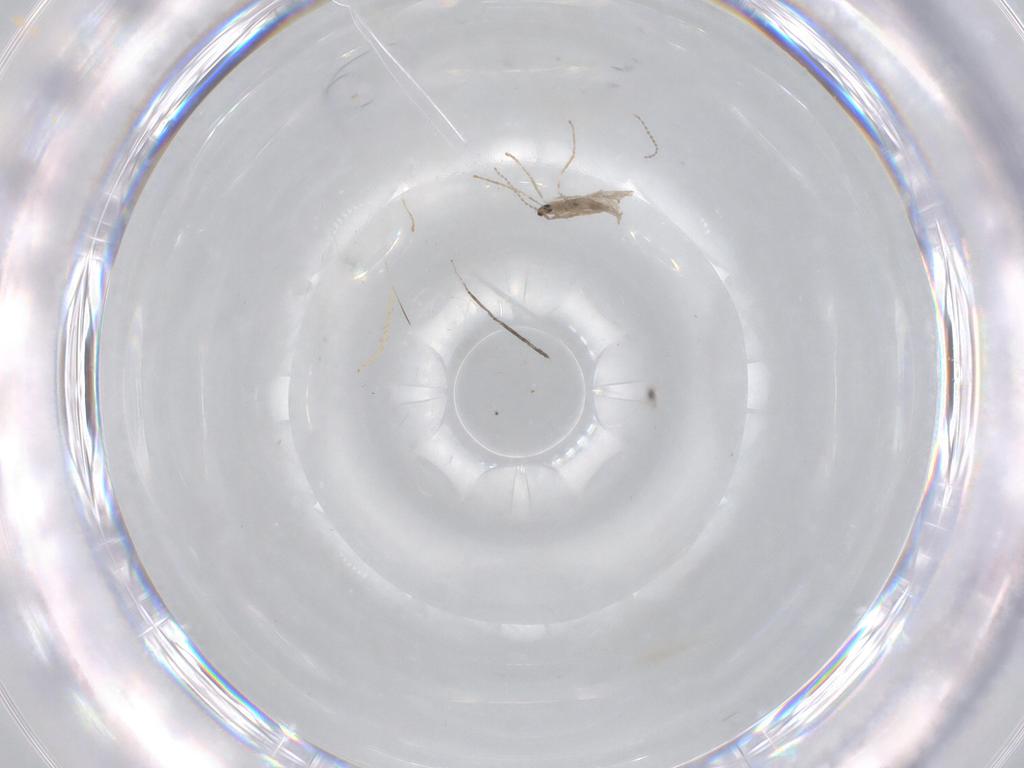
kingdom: Animalia
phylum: Arthropoda
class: Insecta
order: Diptera
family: Cecidomyiidae
